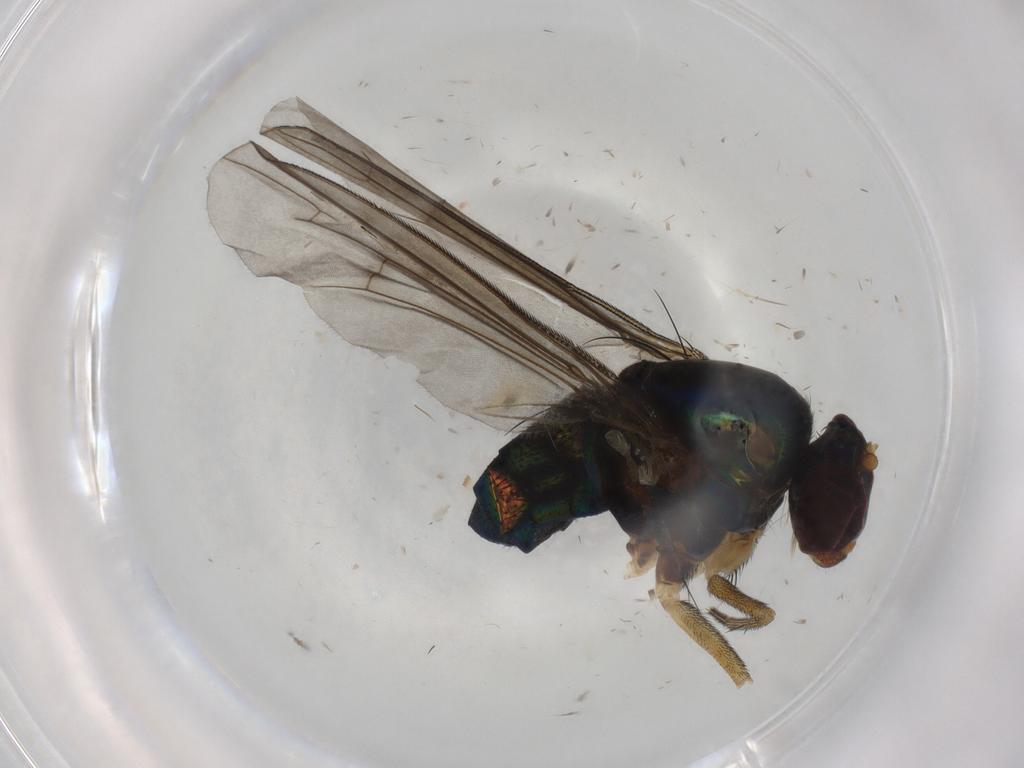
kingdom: Animalia
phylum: Arthropoda
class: Insecta
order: Diptera
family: Dolichopodidae
